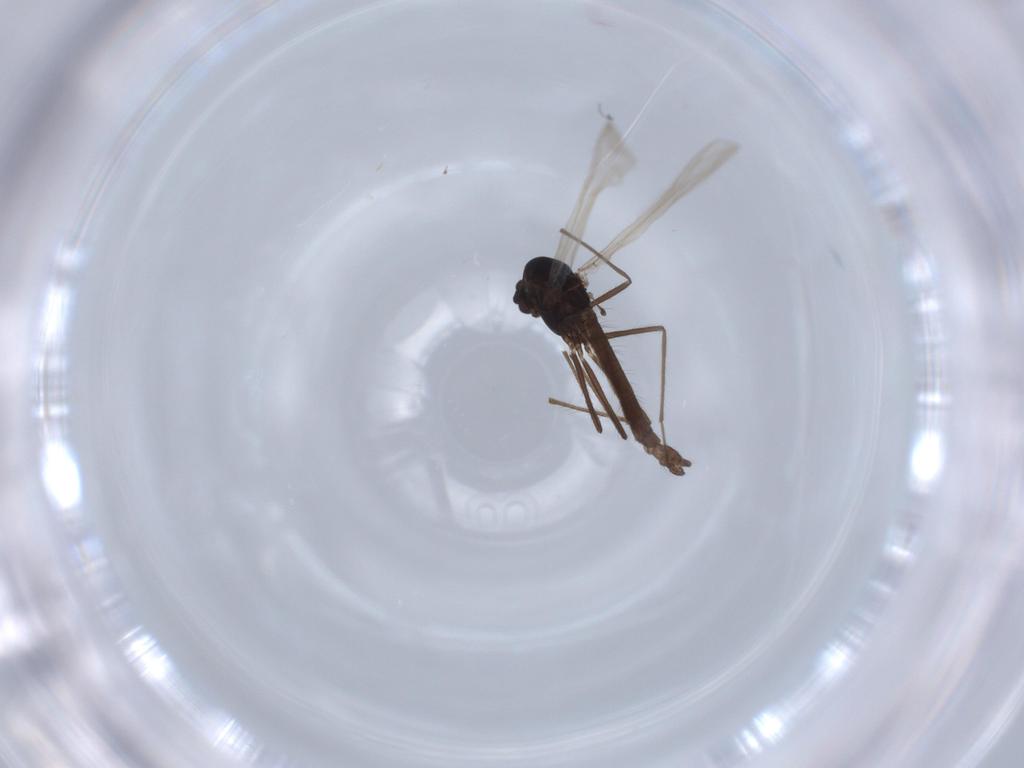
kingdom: Animalia
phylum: Arthropoda
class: Insecta
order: Diptera
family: Chironomidae
